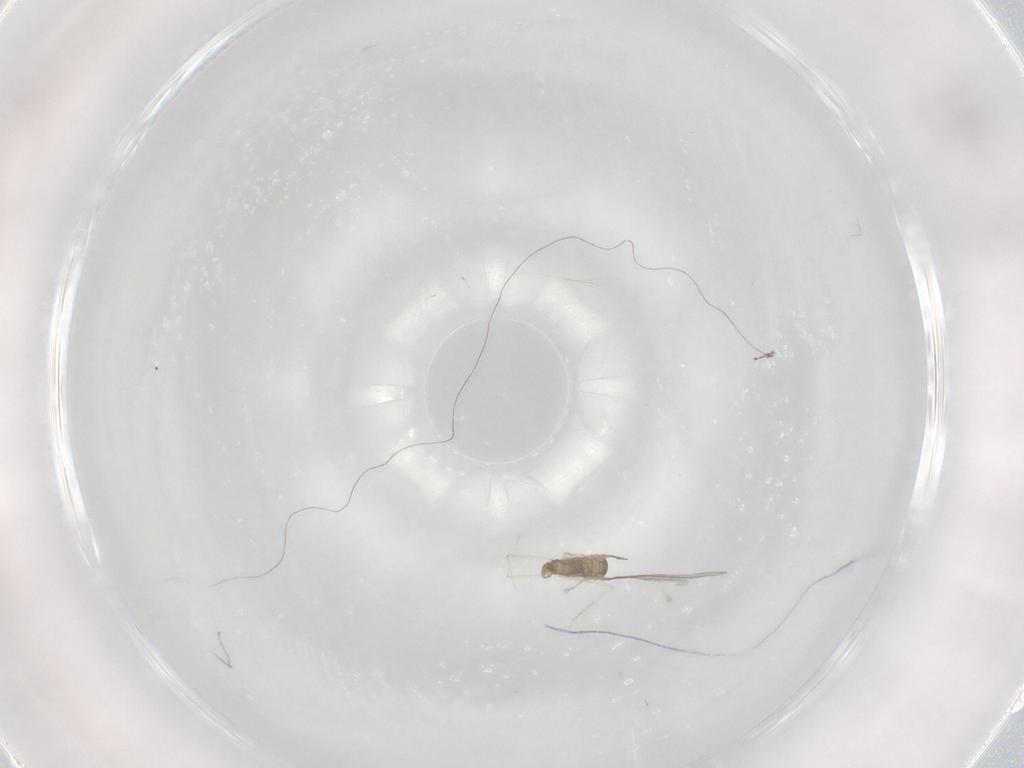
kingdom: Animalia
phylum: Arthropoda
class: Insecta
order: Diptera
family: Cecidomyiidae
